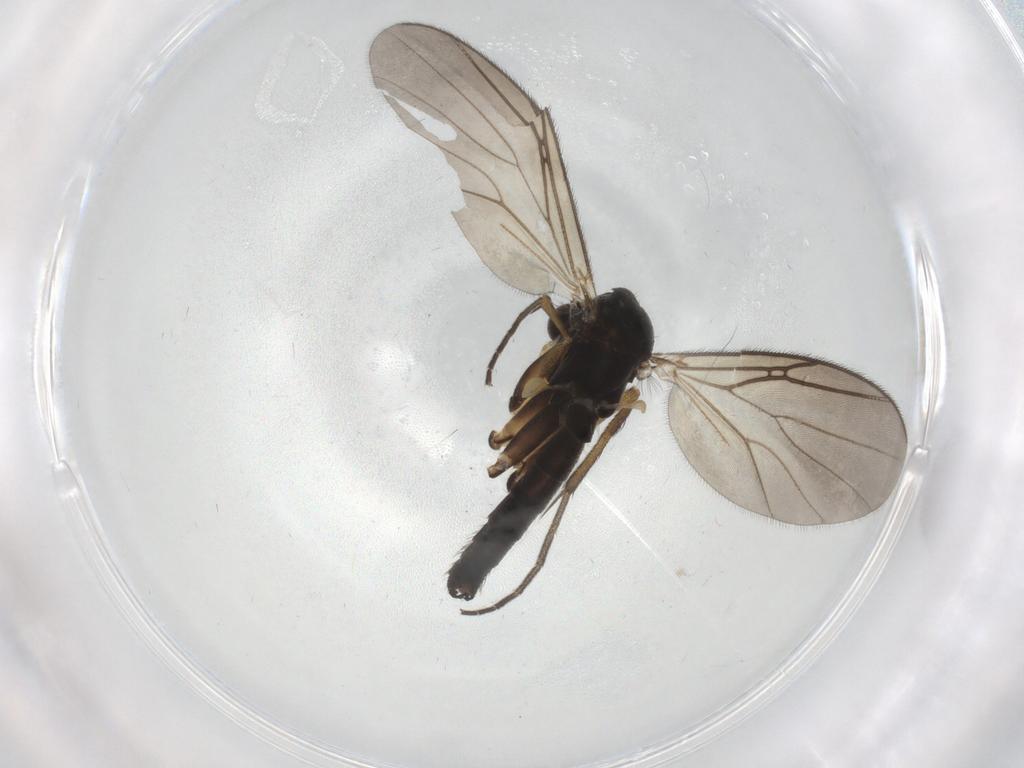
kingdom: Animalia
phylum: Arthropoda
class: Insecta
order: Diptera
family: Mycetophilidae
